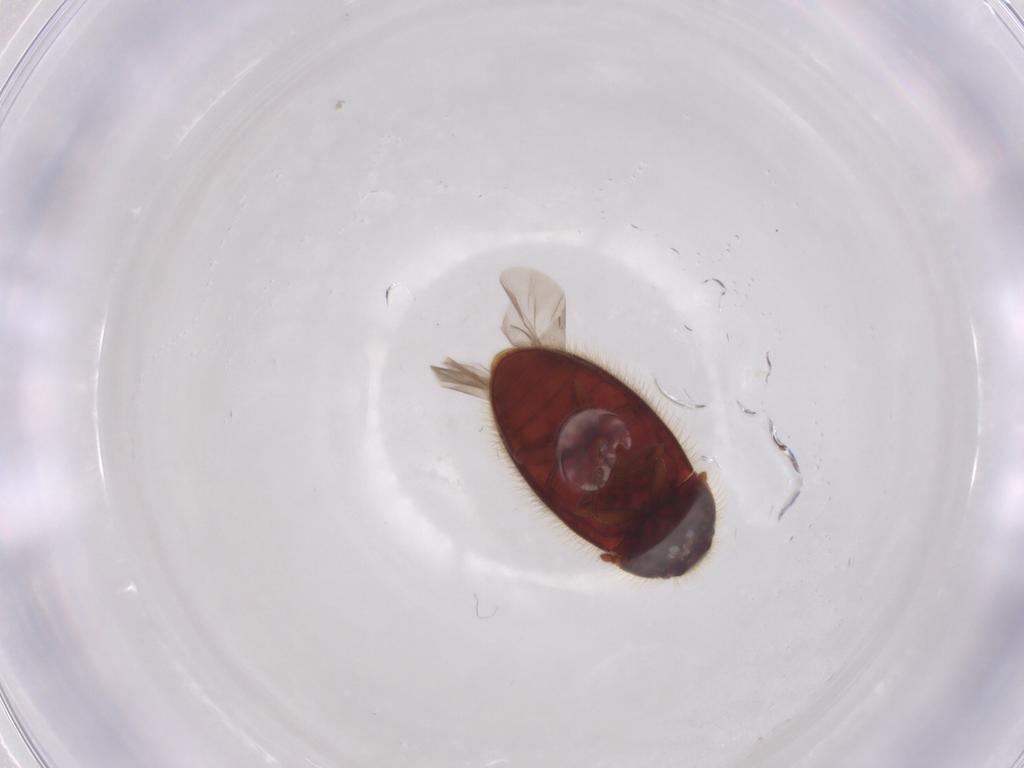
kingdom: Animalia
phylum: Arthropoda
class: Insecta
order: Coleoptera
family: Biphyllidae
